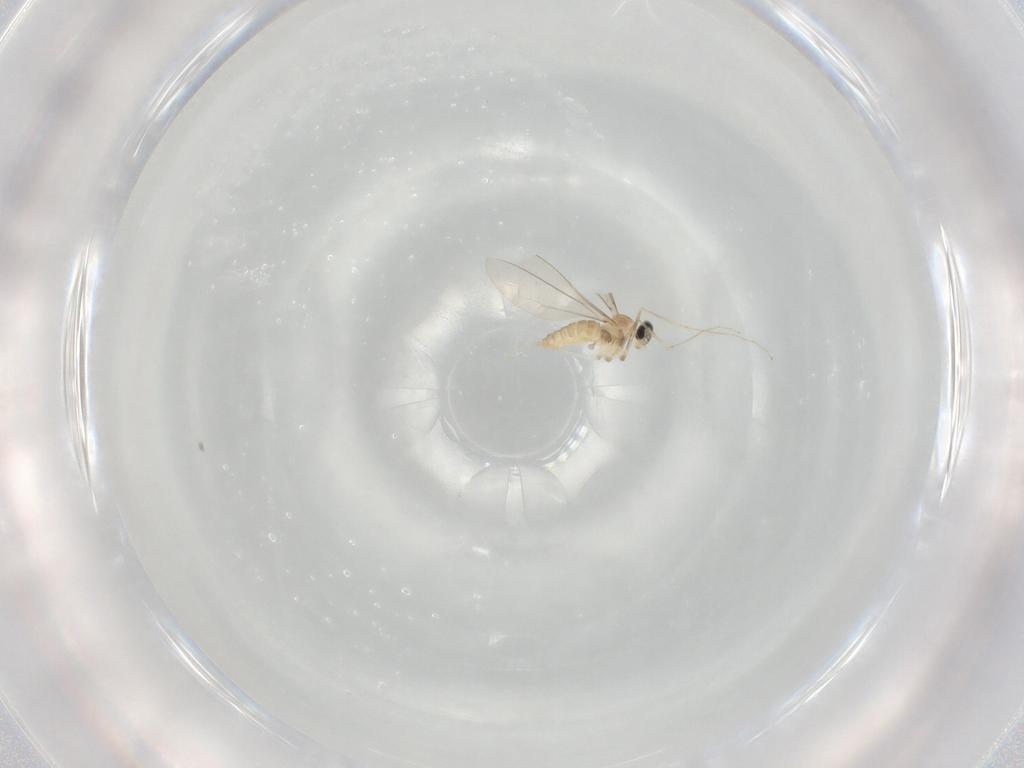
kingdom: Animalia
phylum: Arthropoda
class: Insecta
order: Diptera
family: Cecidomyiidae
